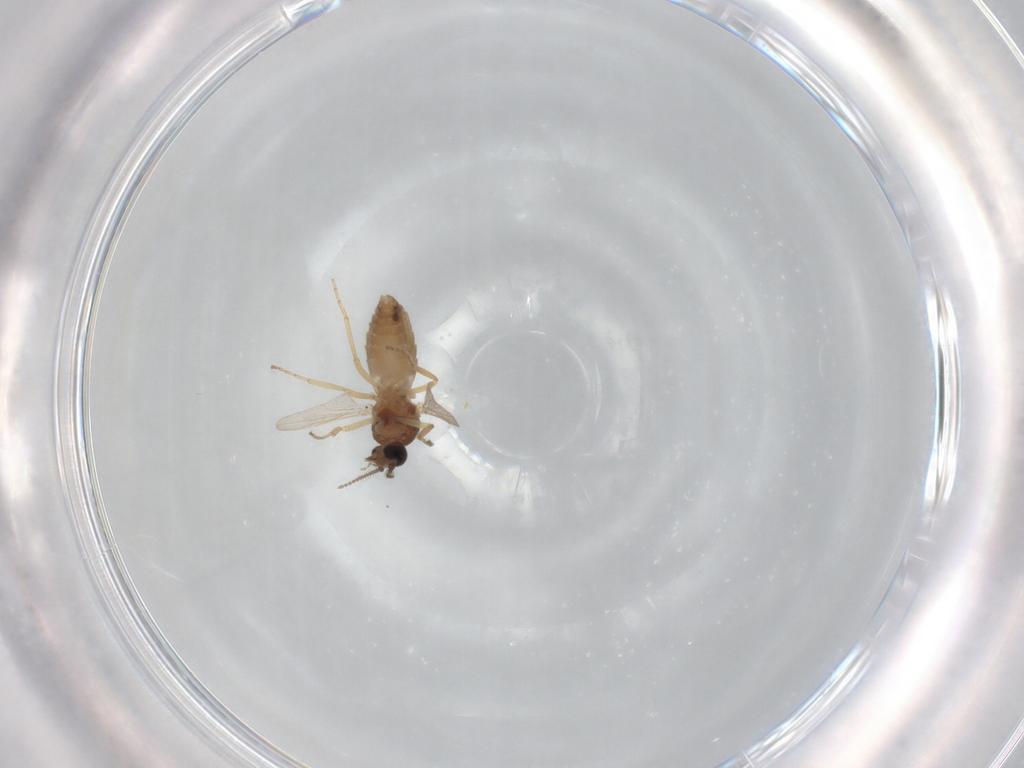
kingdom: Animalia
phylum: Arthropoda
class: Insecta
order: Diptera
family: Ceratopogonidae
